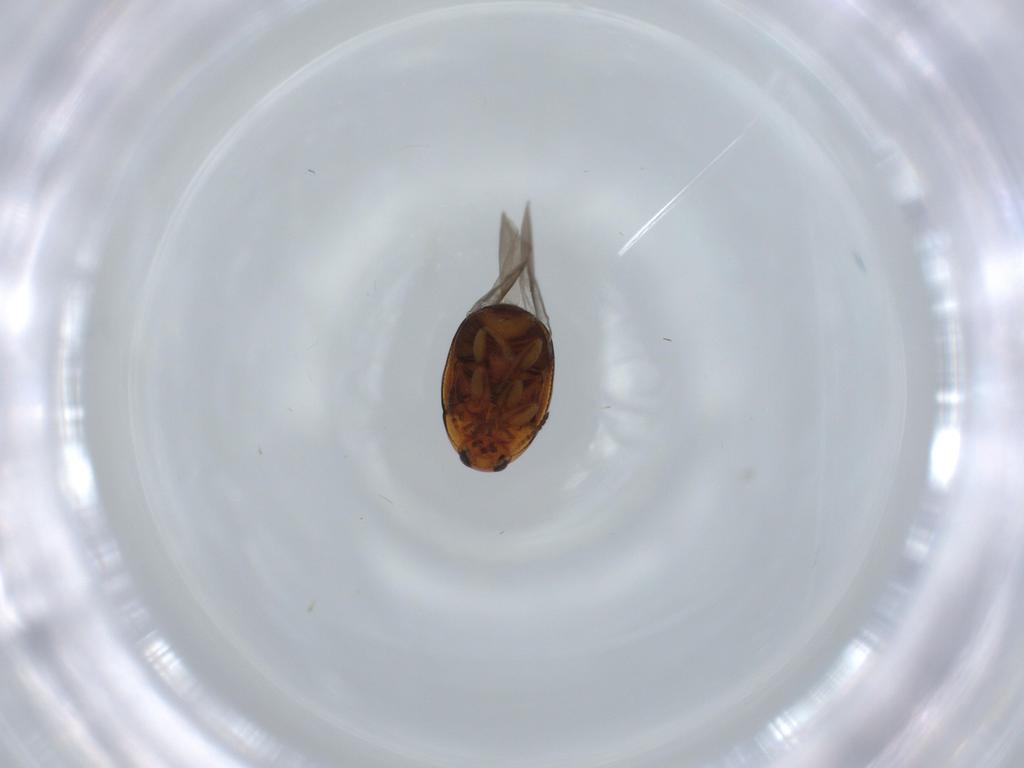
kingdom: Animalia
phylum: Arthropoda
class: Insecta
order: Coleoptera
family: Chrysomelidae
